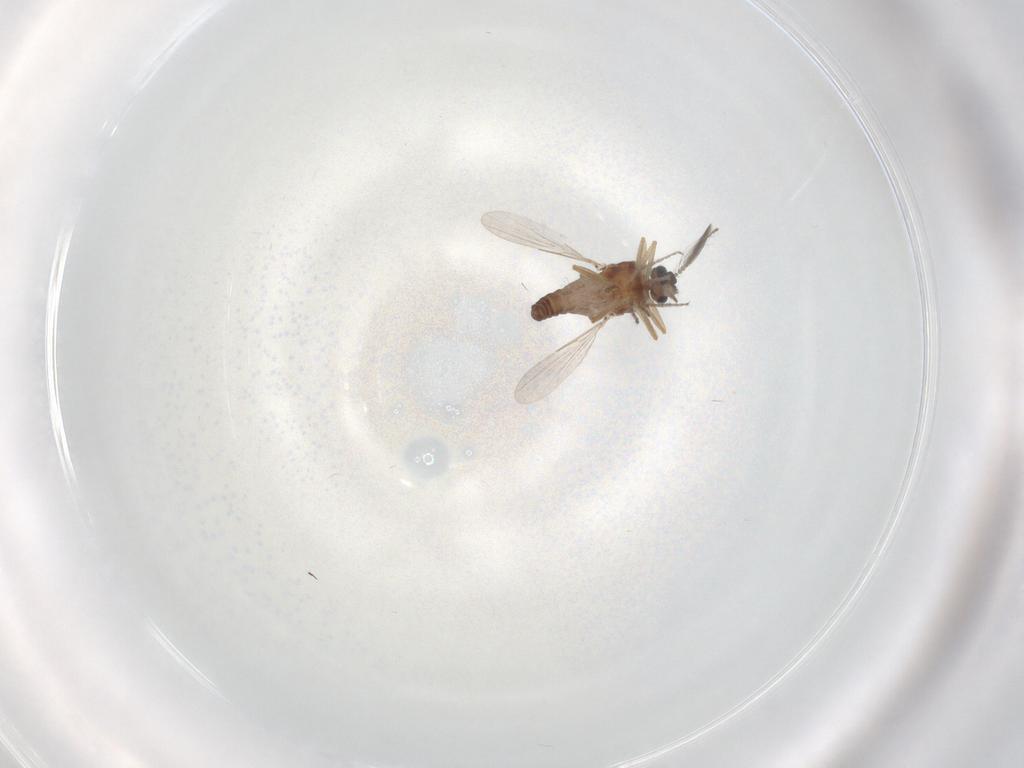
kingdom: Animalia
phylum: Arthropoda
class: Insecta
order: Diptera
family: Ceratopogonidae
